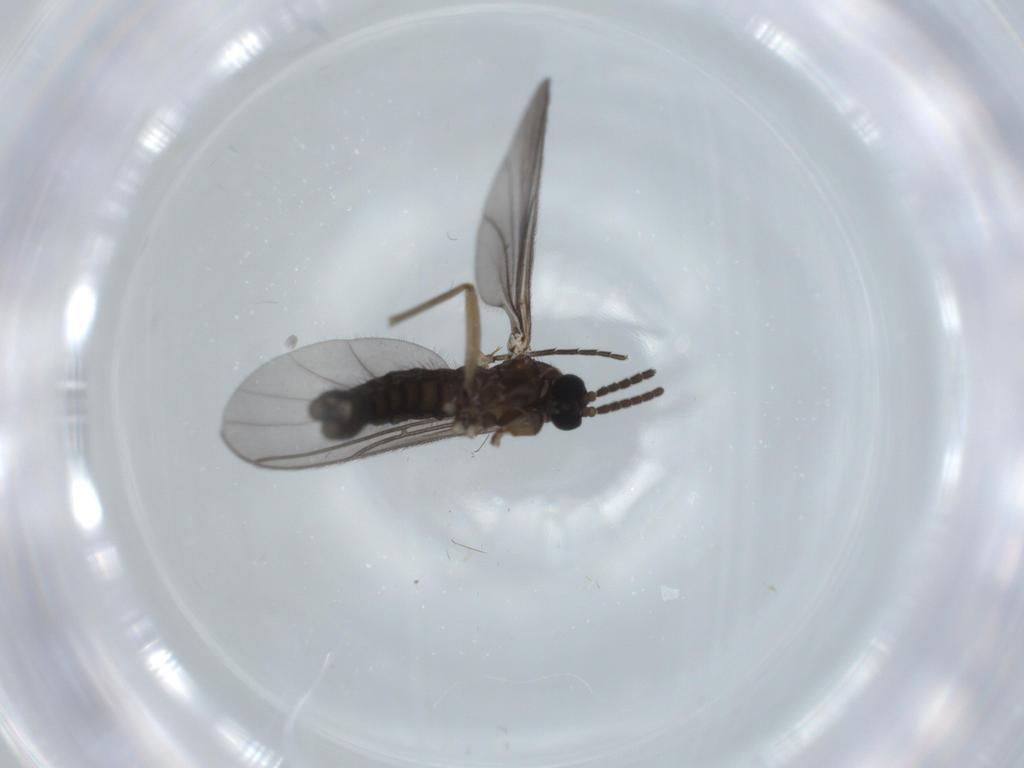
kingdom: Animalia
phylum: Arthropoda
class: Insecta
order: Diptera
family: Sciaridae
